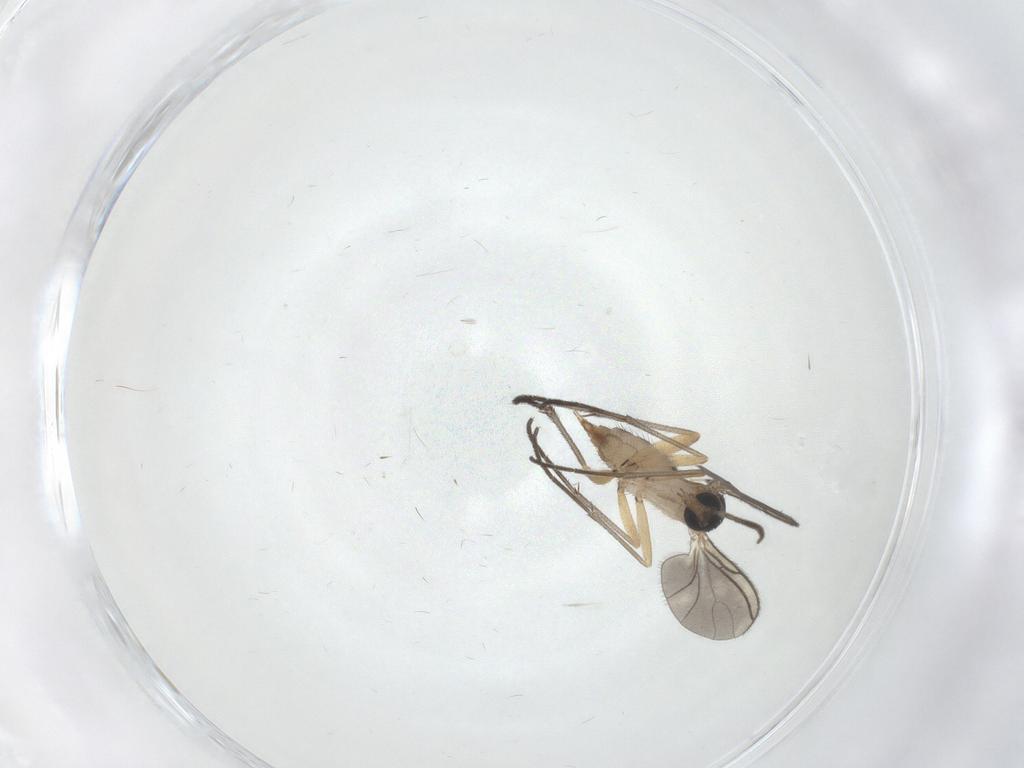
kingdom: Animalia
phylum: Arthropoda
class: Insecta
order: Diptera
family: Sciaridae
